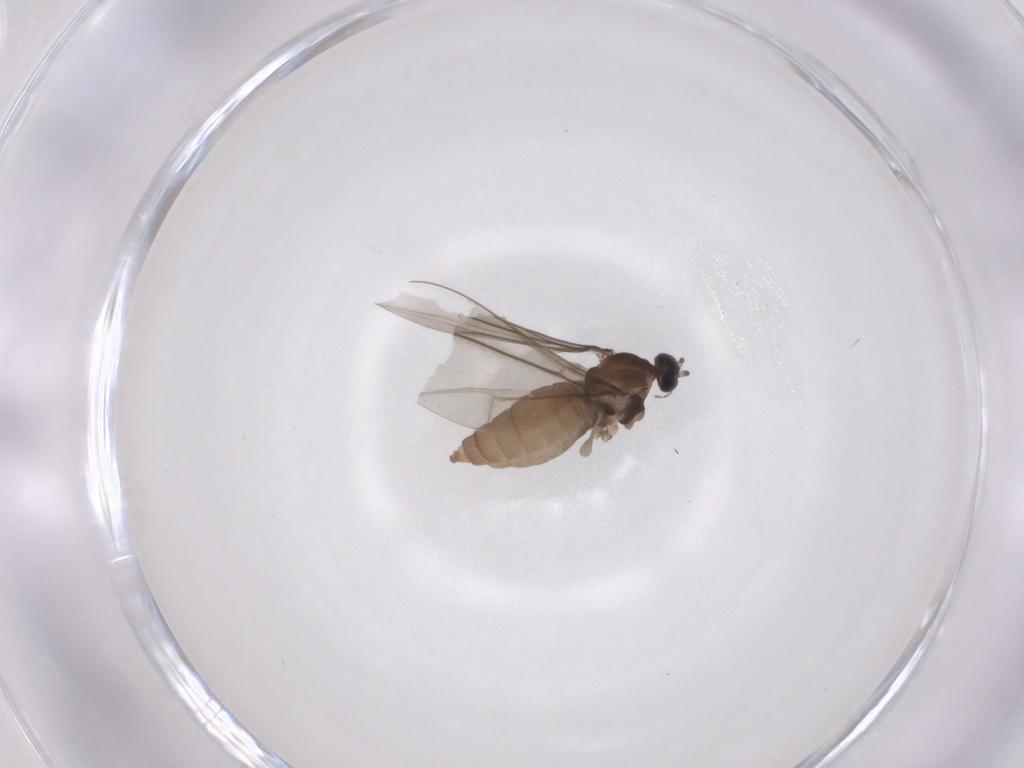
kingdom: Animalia
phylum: Arthropoda
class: Insecta
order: Diptera
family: Cecidomyiidae
